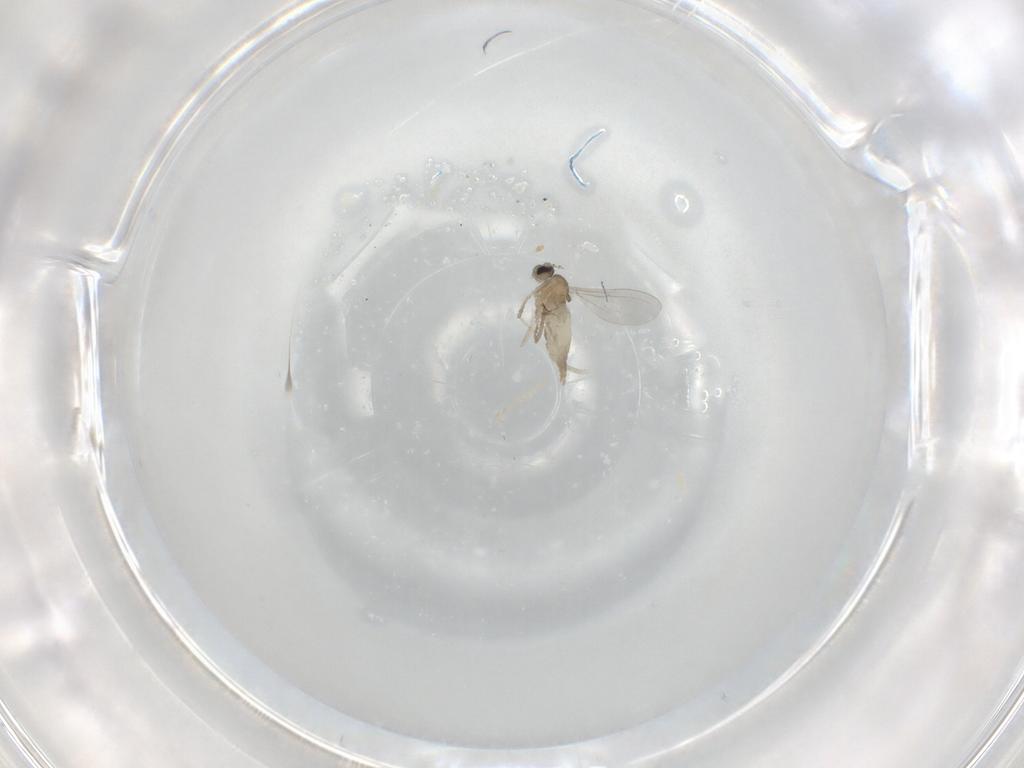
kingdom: Animalia
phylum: Arthropoda
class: Insecta
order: Diptera
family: Cecidomyiidae
